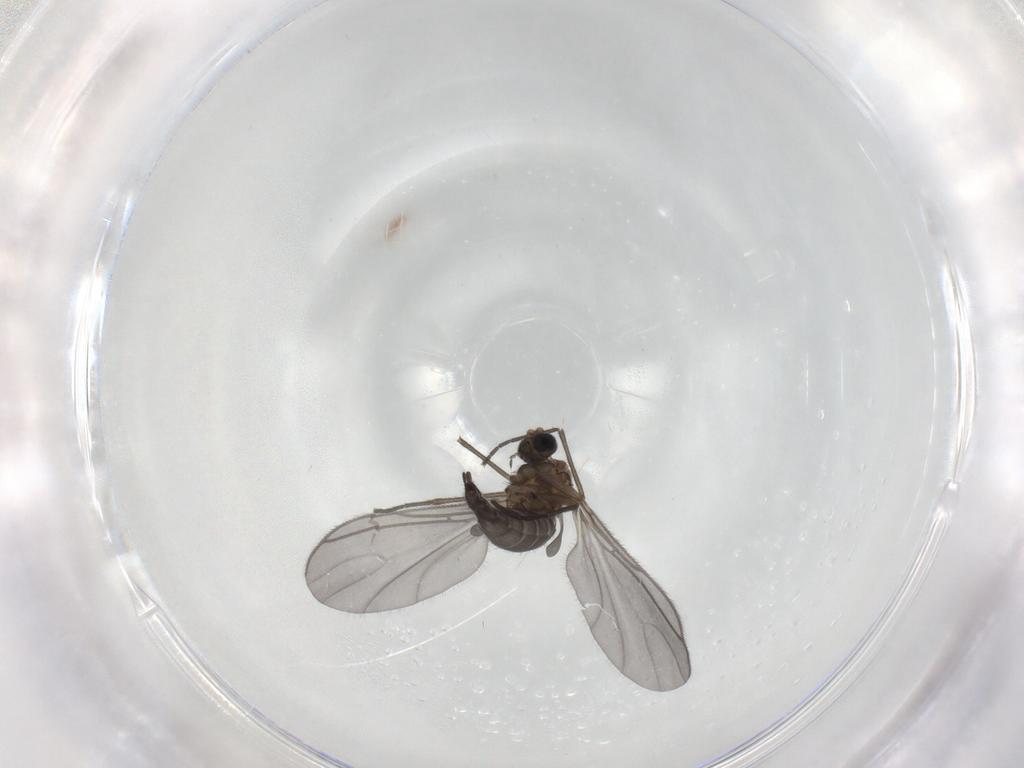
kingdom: Animalia
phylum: Arthropoda
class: Insecta
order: Diptera
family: Sciaridae
